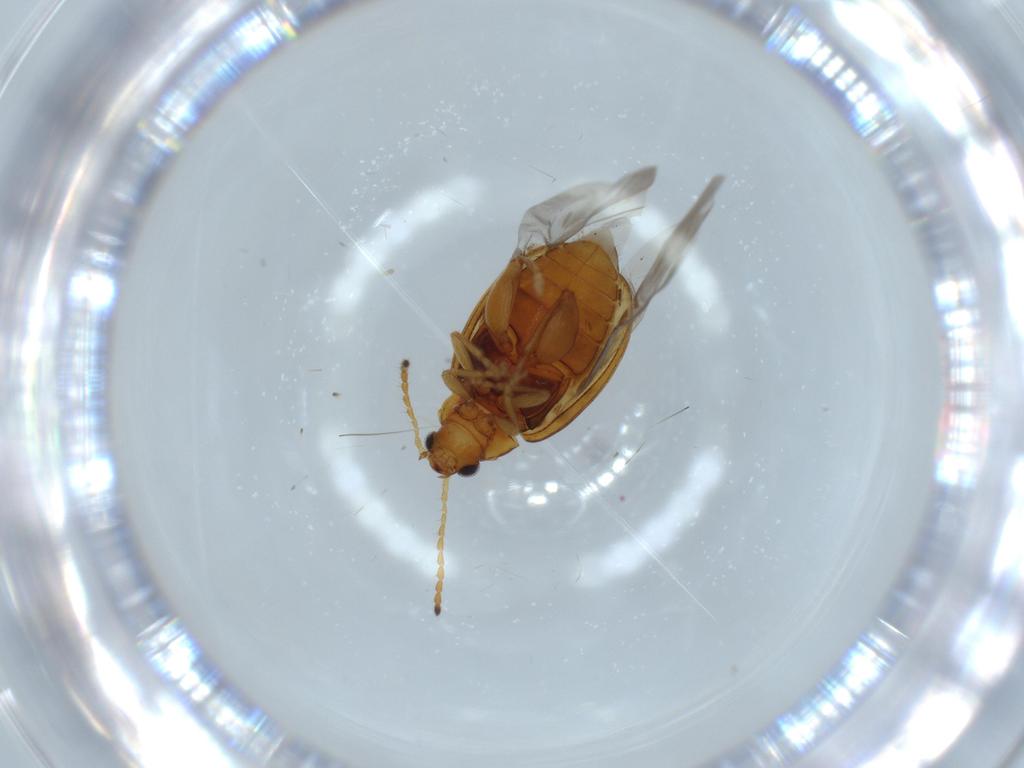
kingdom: Animalia
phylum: Arthropoda
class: Insecta
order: Coleoptera
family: Chrysomelidae
